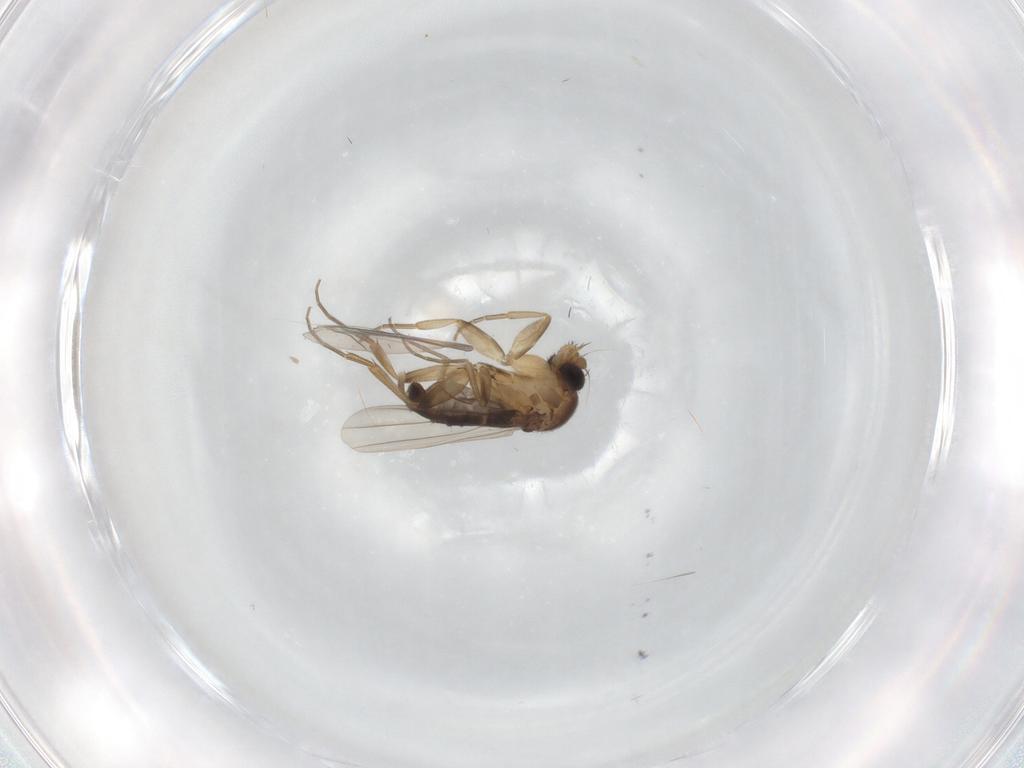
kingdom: Animalia
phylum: Arthropoda
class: Insecta
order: Diptera
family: Phoridae
